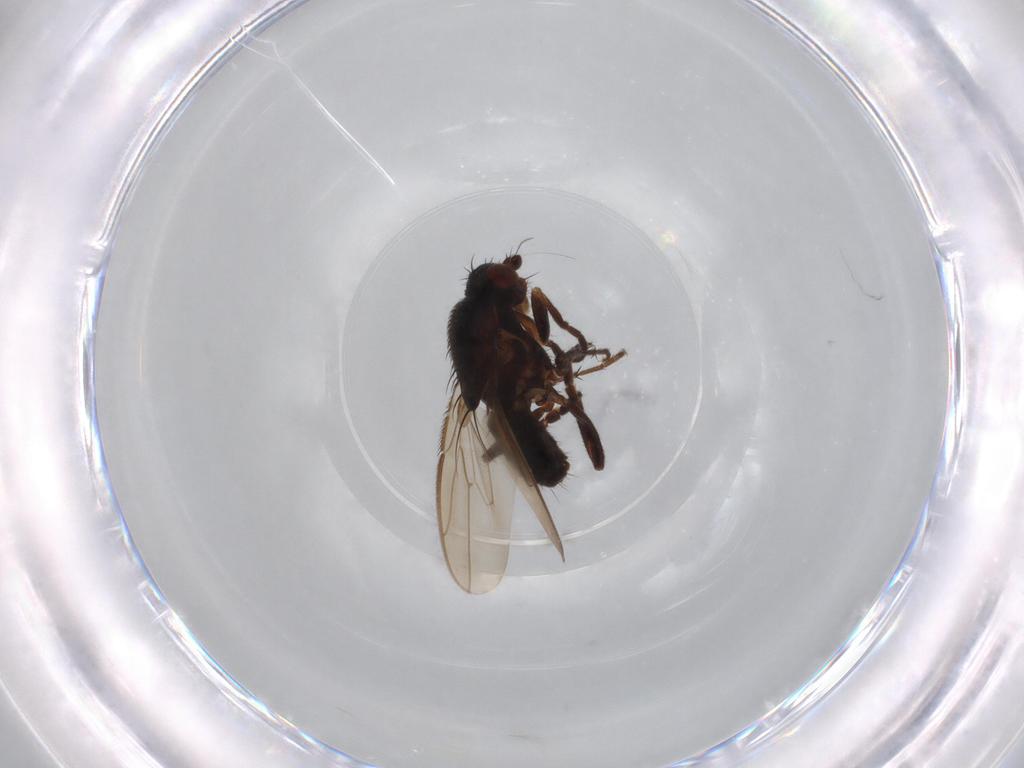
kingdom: Animalia
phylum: Arthropoda
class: Insecta
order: Diptera
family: Sphaeroceridae
